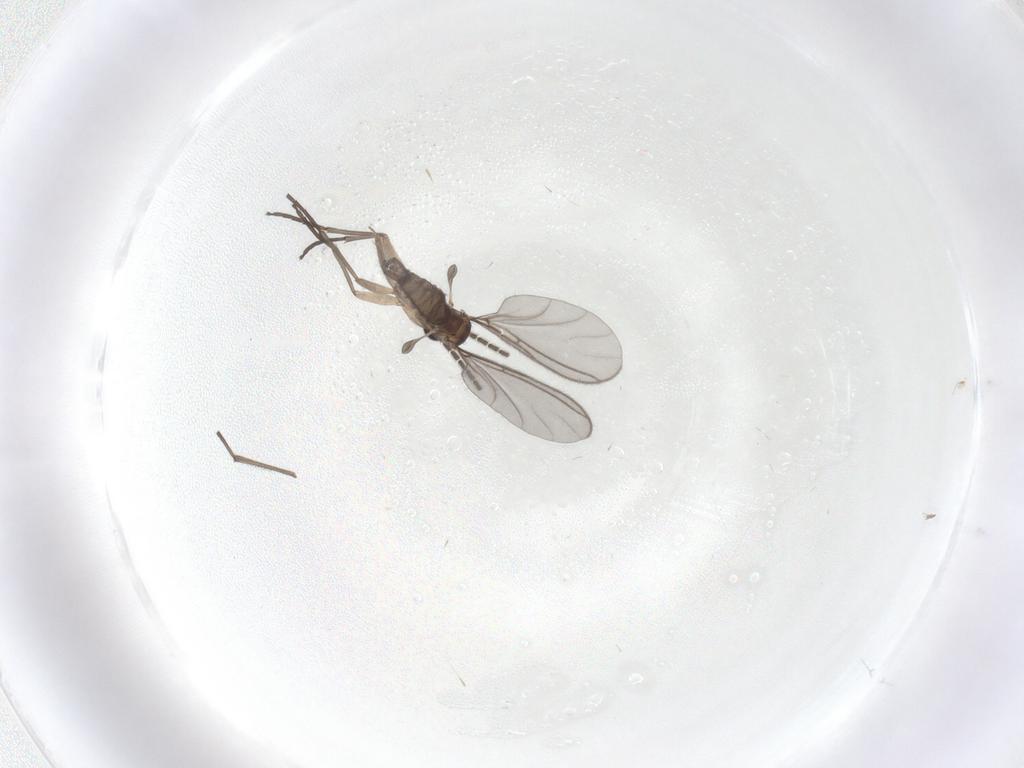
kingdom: Animalia
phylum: Arthropoda
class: Insecta
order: Diptera
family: Sciaridae
